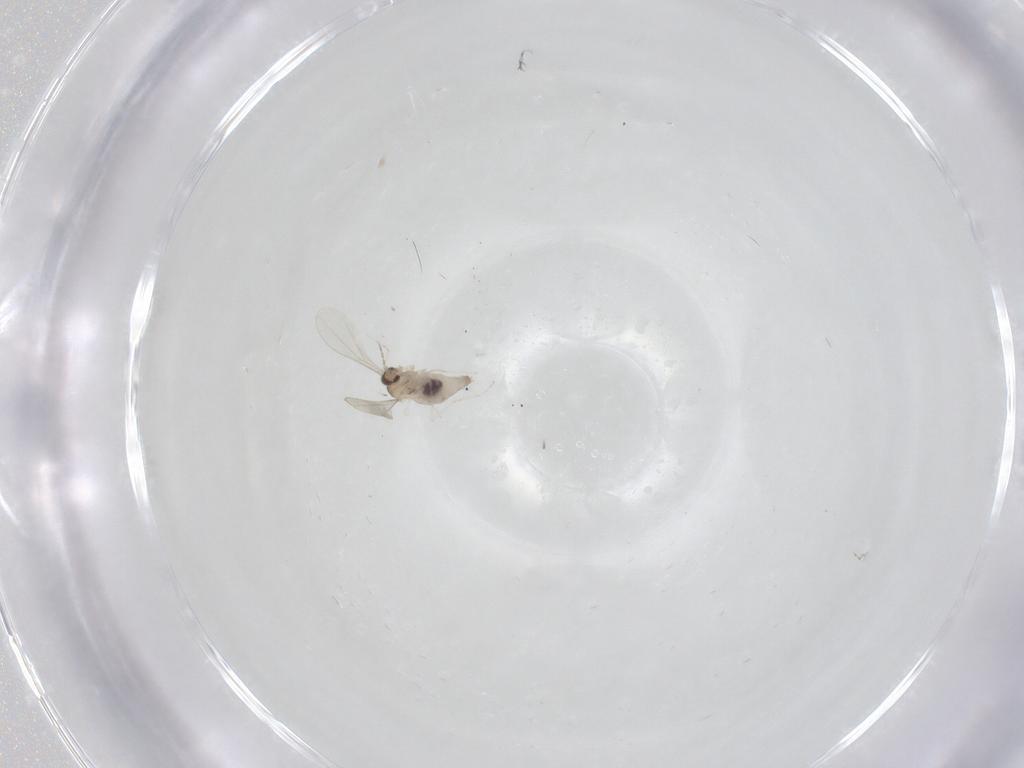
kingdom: Animalia
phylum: Arthropoda
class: Insecta
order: Diptera
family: Cecidomyiidae
